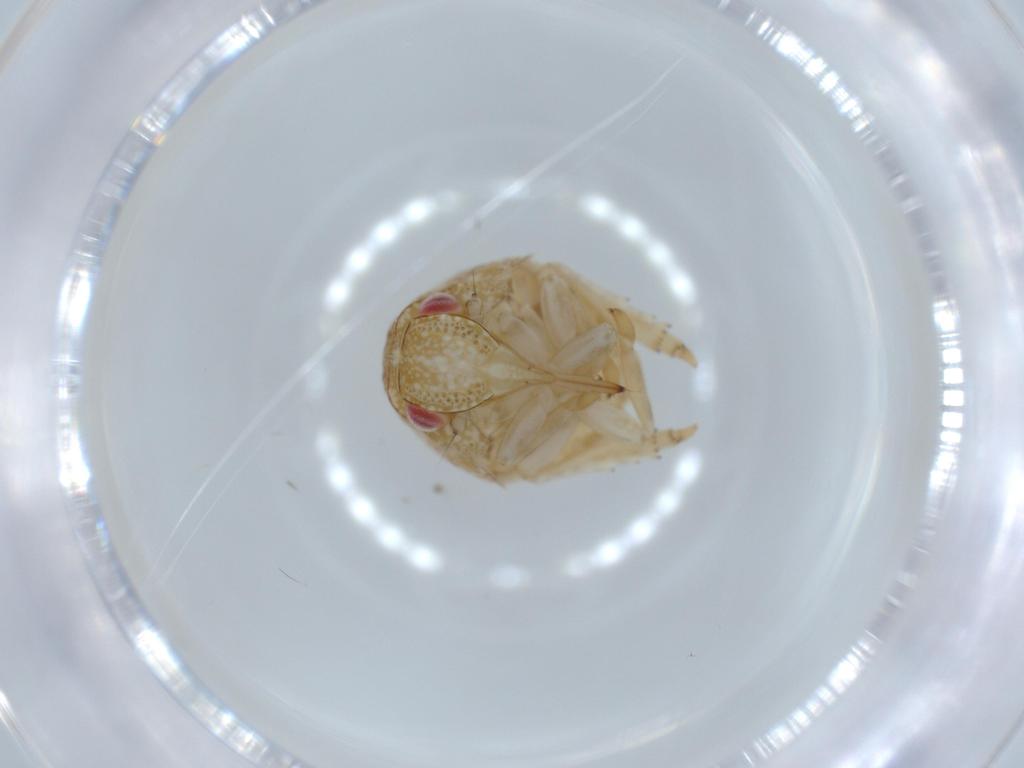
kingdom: Animalia
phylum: Arthropoda
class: Insecta
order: Hemiptera
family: Acanaloniidae
